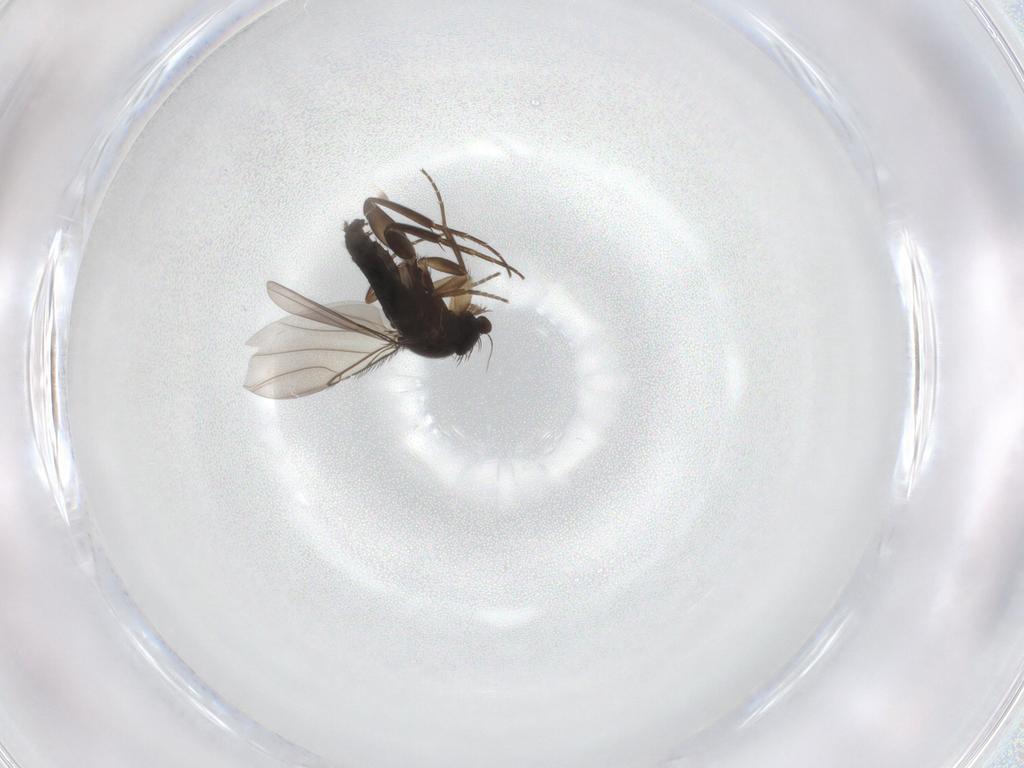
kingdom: Animalia
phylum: Arthropoda
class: Insecta
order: Diptera
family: Phoridae
